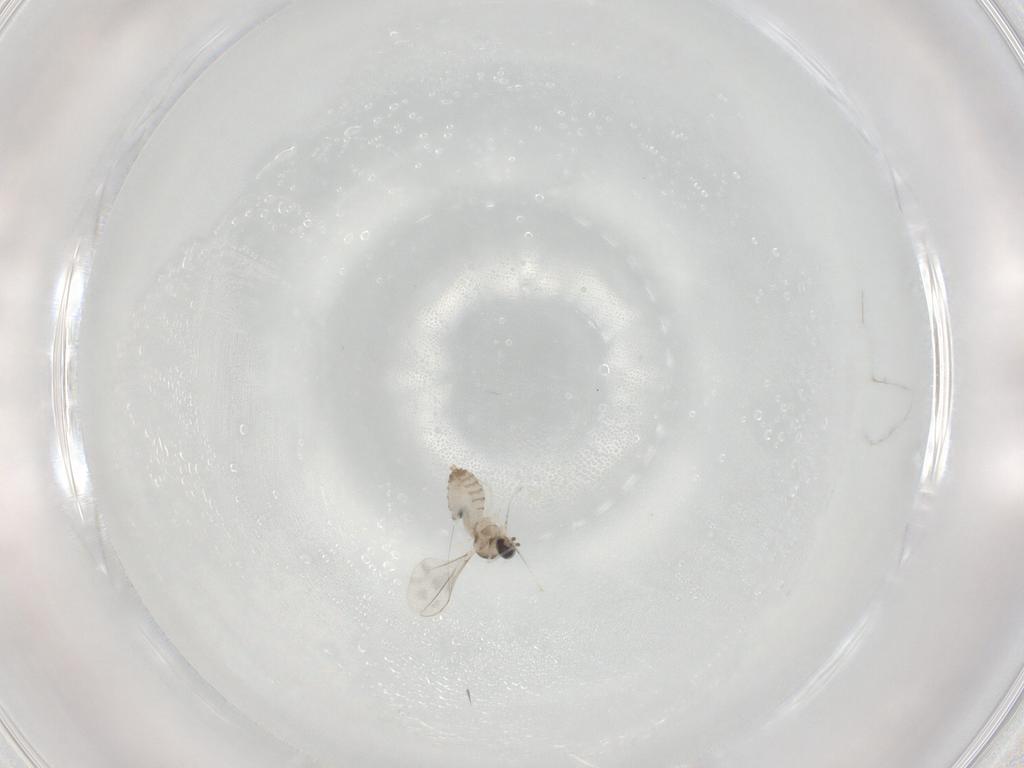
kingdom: Animalia
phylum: Arthropoda
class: Insecta
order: Diptera
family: Cecidomyiidae
